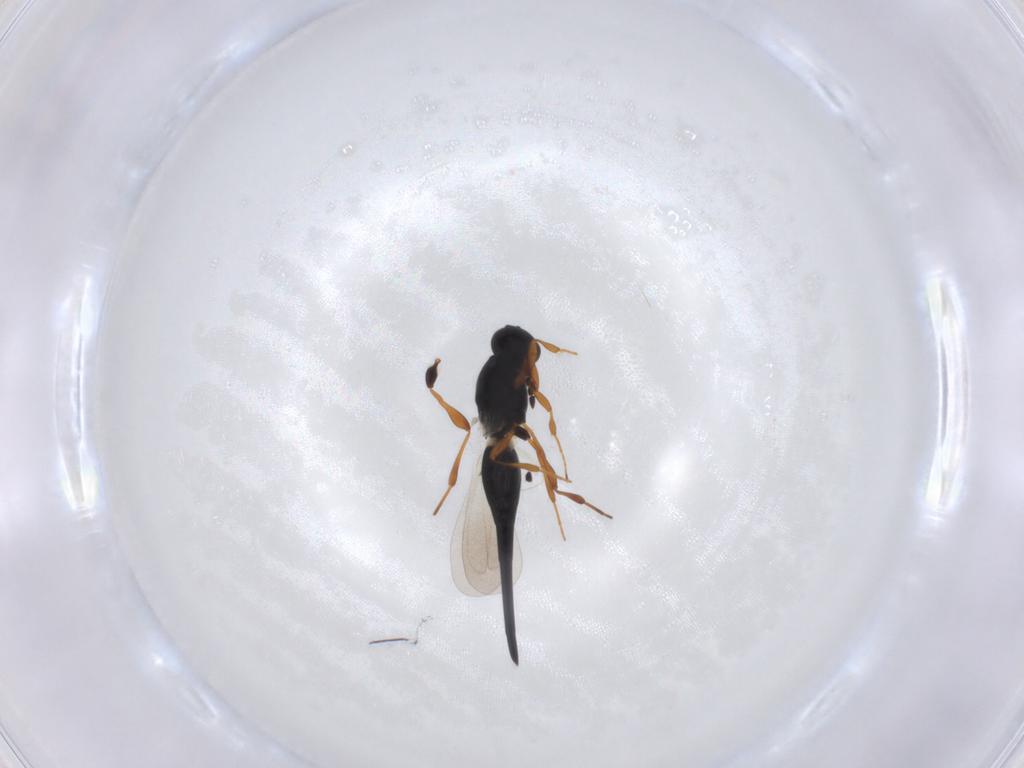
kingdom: Animalia
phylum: Arthropoda
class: Insecta
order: Hymenoptera
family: Platygastridae
